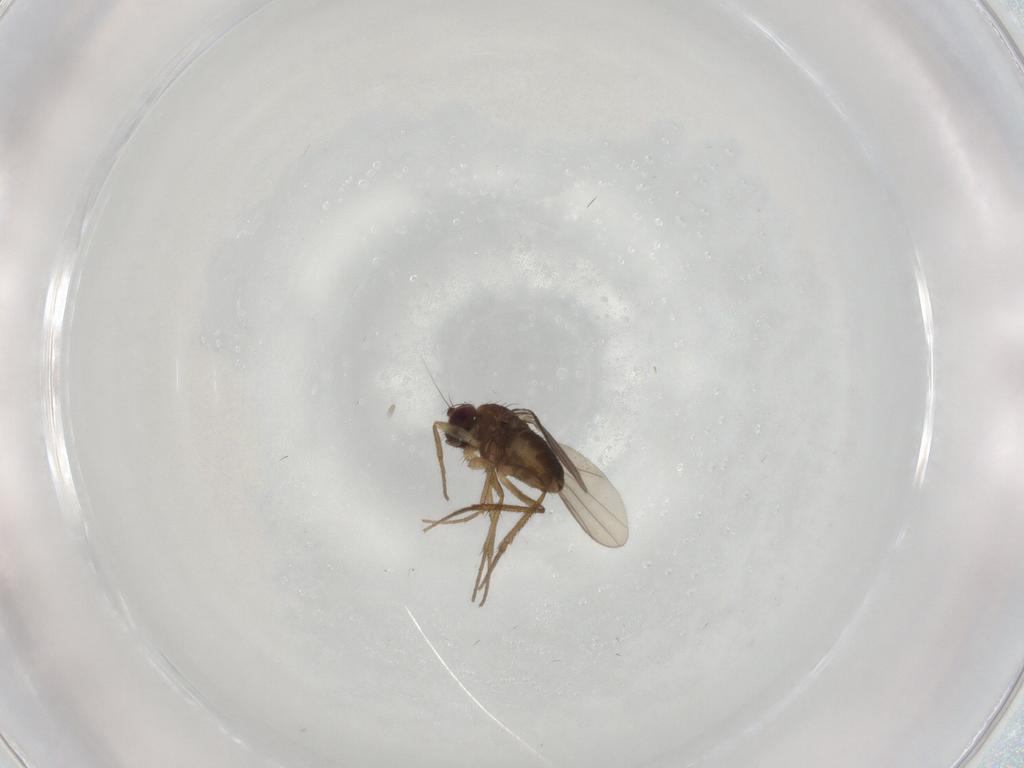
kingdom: Animalia
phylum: Arthropoda
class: Insecta
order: Diptera
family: Dolichopodidae
